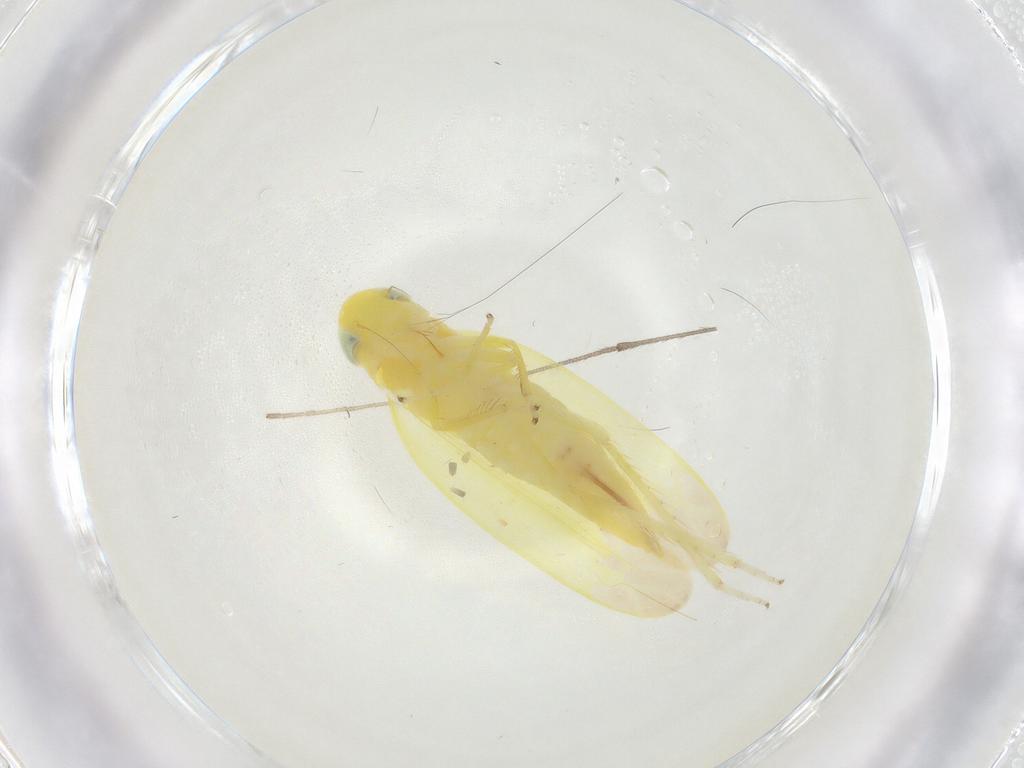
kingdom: Animalia
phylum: Arthropoda
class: Insecta
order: Hemiptera
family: Cicadellidae
